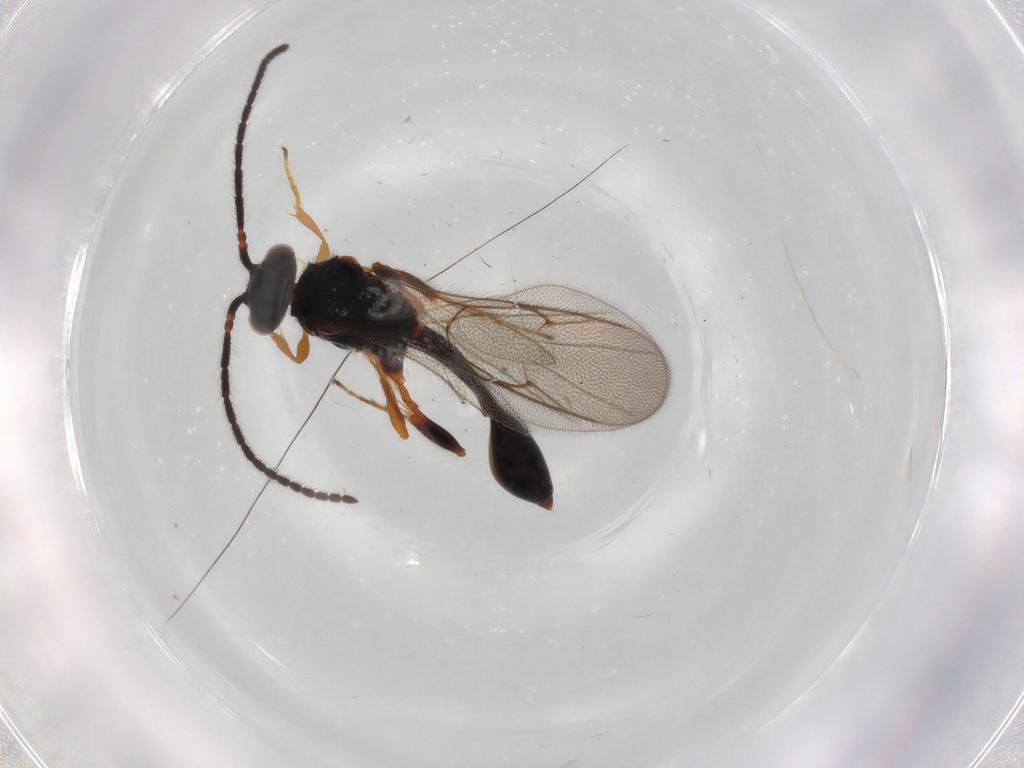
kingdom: Animalia
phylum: Arthropoda
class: Insecta
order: Hymenoptera
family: Diapriidae
